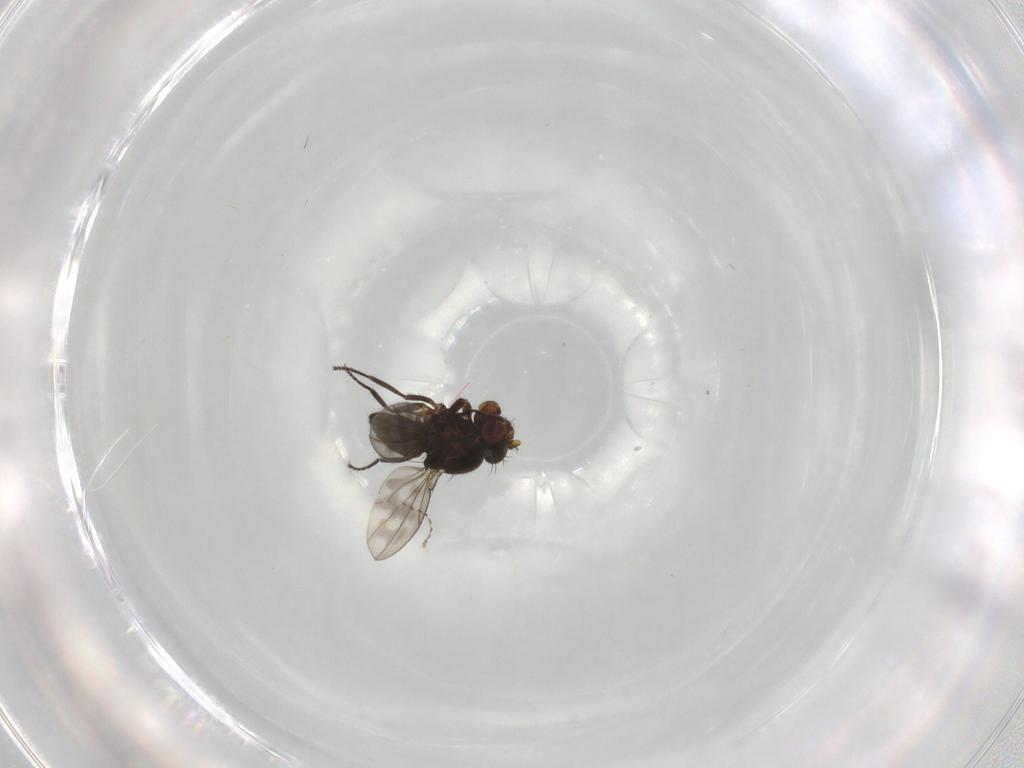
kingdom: Animalia
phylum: Arthropoda
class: Insecta
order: Diptera
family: Ephydridae
